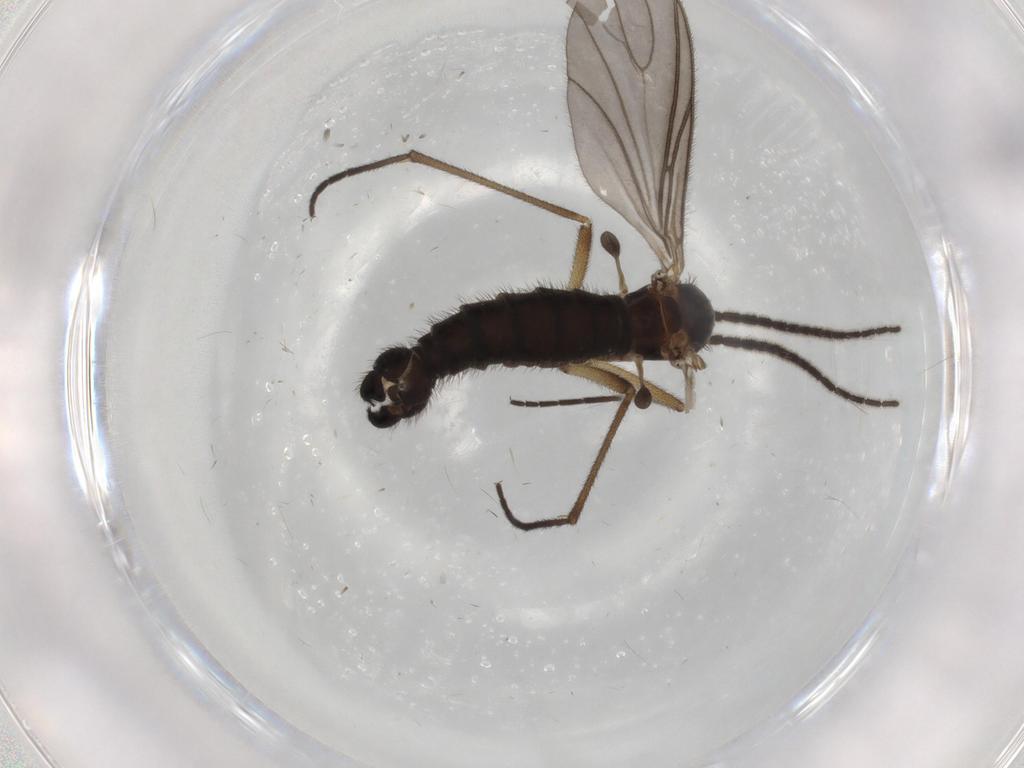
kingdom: Animalia
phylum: Arthropoda
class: Insecta
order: Diptera
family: Sciaridae
